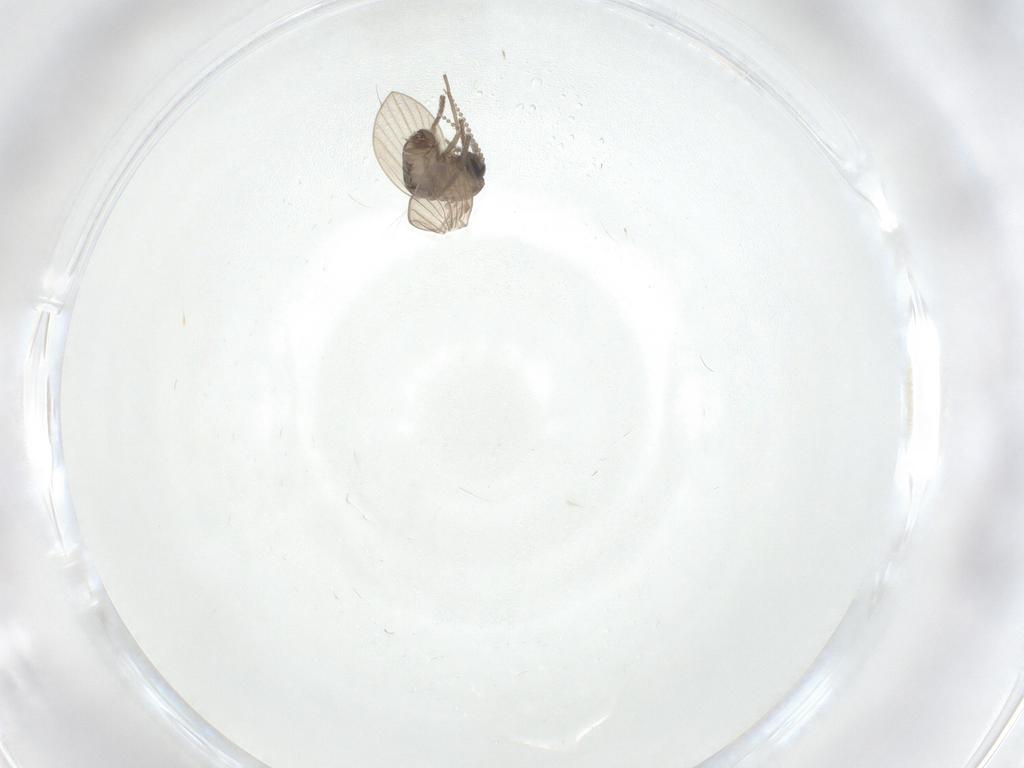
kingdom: Animalia
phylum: Arthropoda
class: Insecta
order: Diptera
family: Psychodidae
